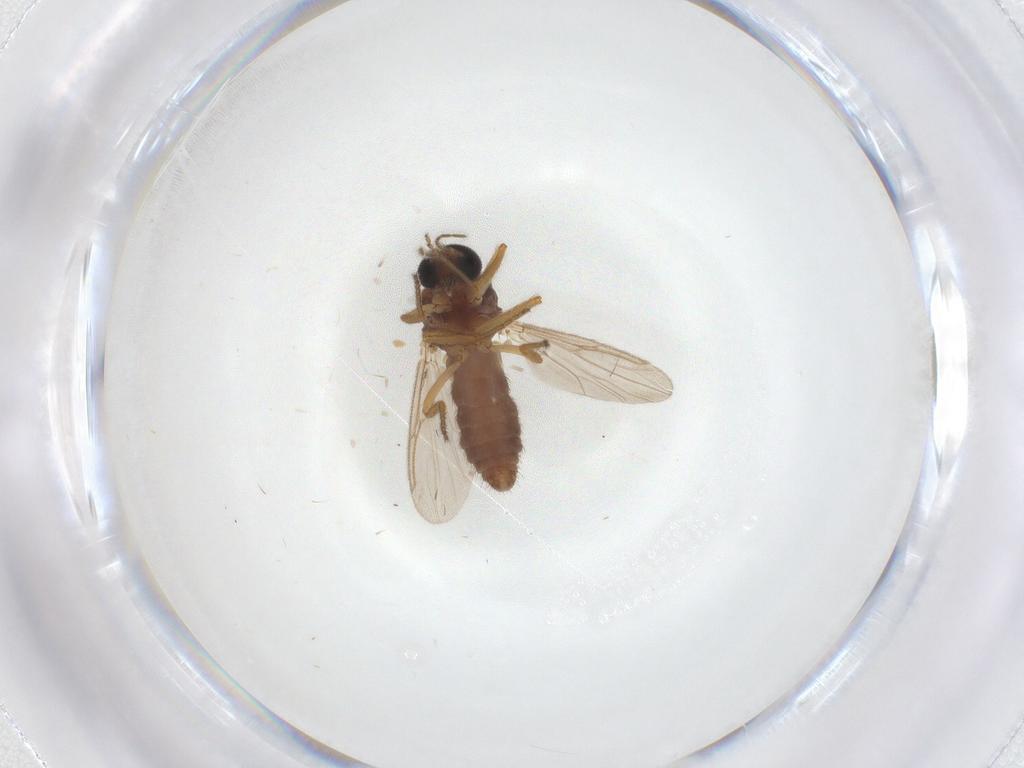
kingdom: Animalia
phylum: Arthropoda
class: Insecta
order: Diptera
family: Ceratopogonidae
